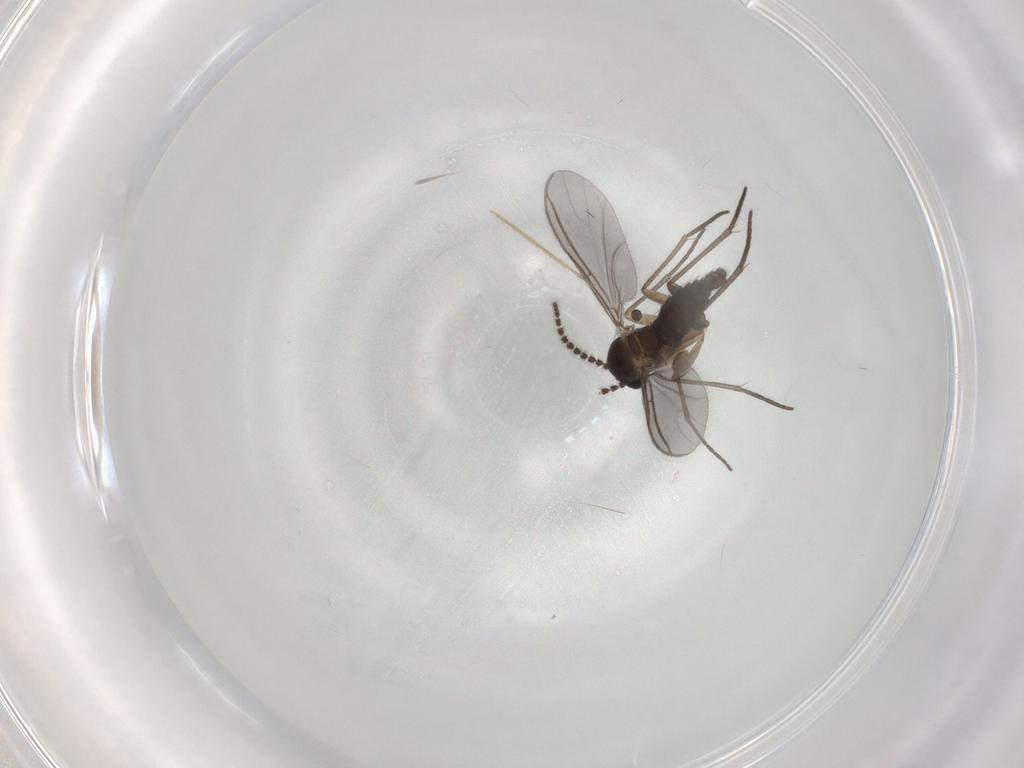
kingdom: Animalia
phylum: Arthropoda
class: Insecta
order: Diptera
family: Sciaridae
